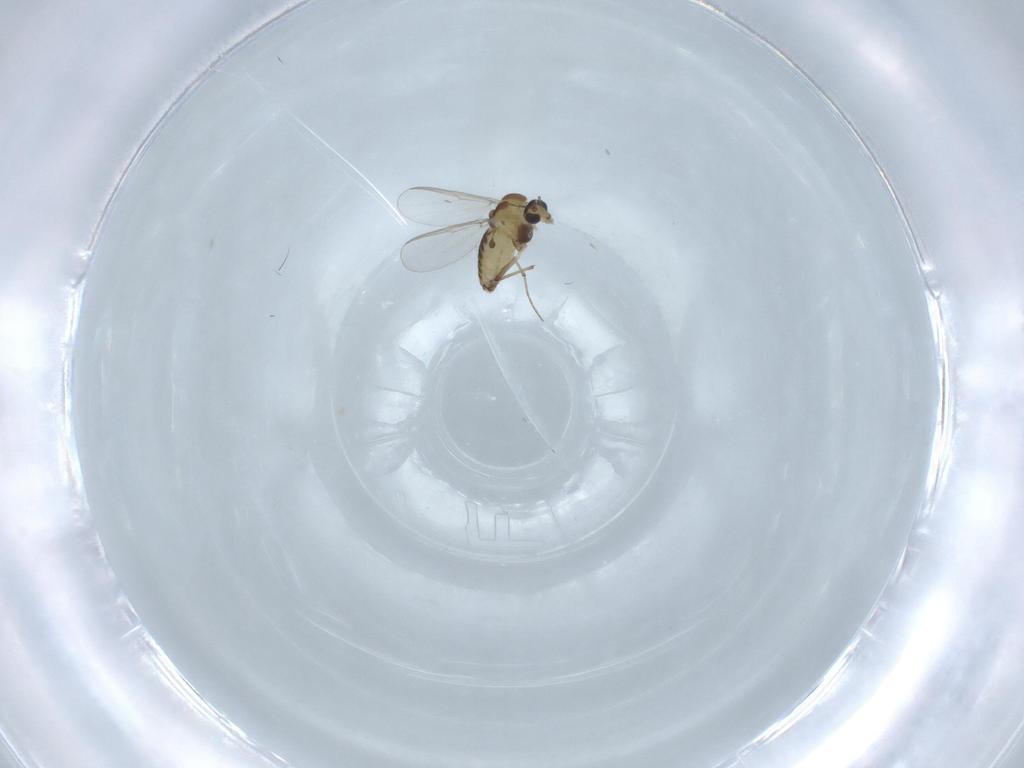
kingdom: Animalia
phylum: Arthropoda
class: Insecta
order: Diptera
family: Chironomidae
